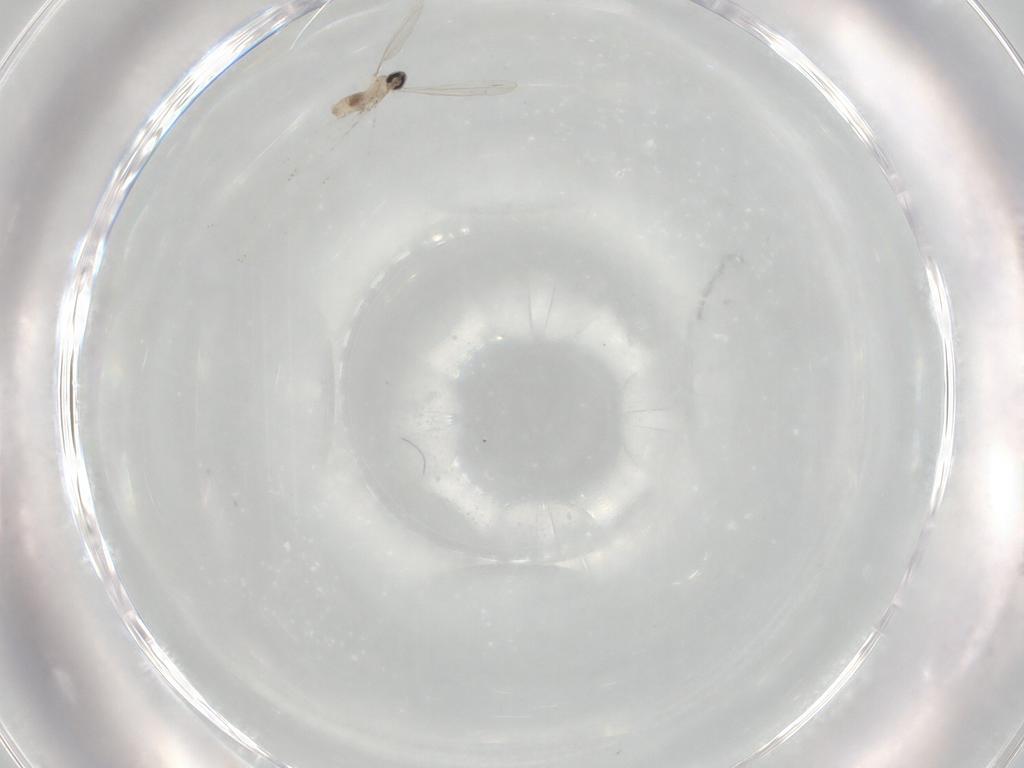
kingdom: Animalia
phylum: Arthropoda
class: Insecta
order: Diptera
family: Cecidomyiidae
